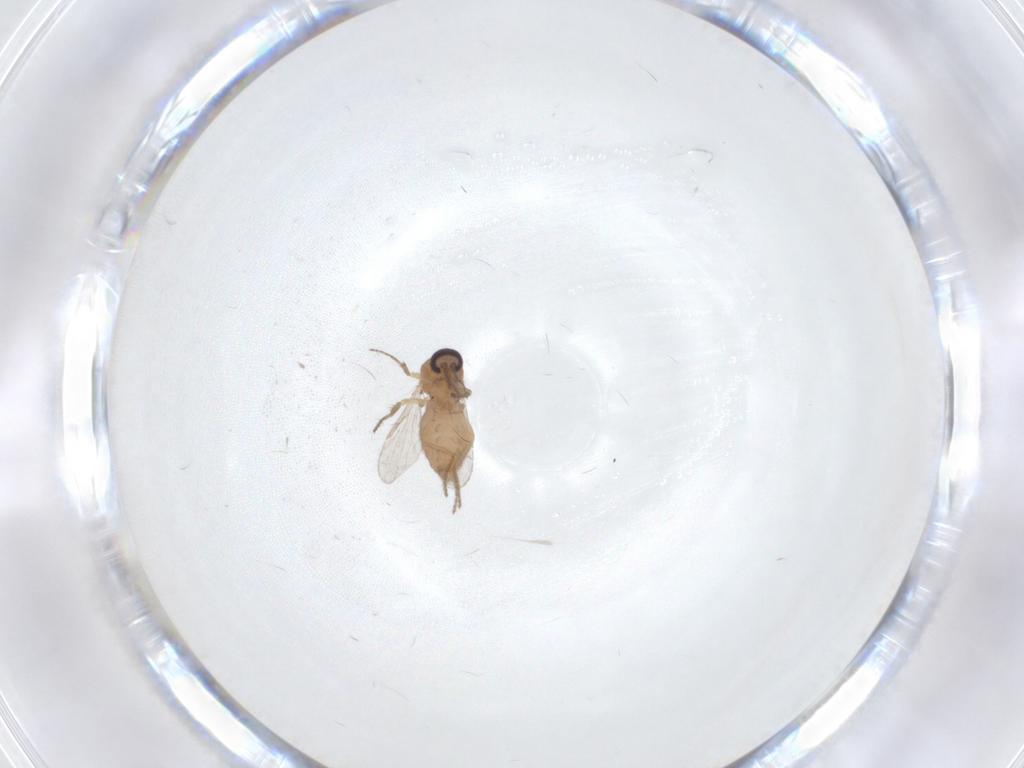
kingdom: Animalia
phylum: Arthropoda
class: Insecta
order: Diptera
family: Ceratopogonidae
